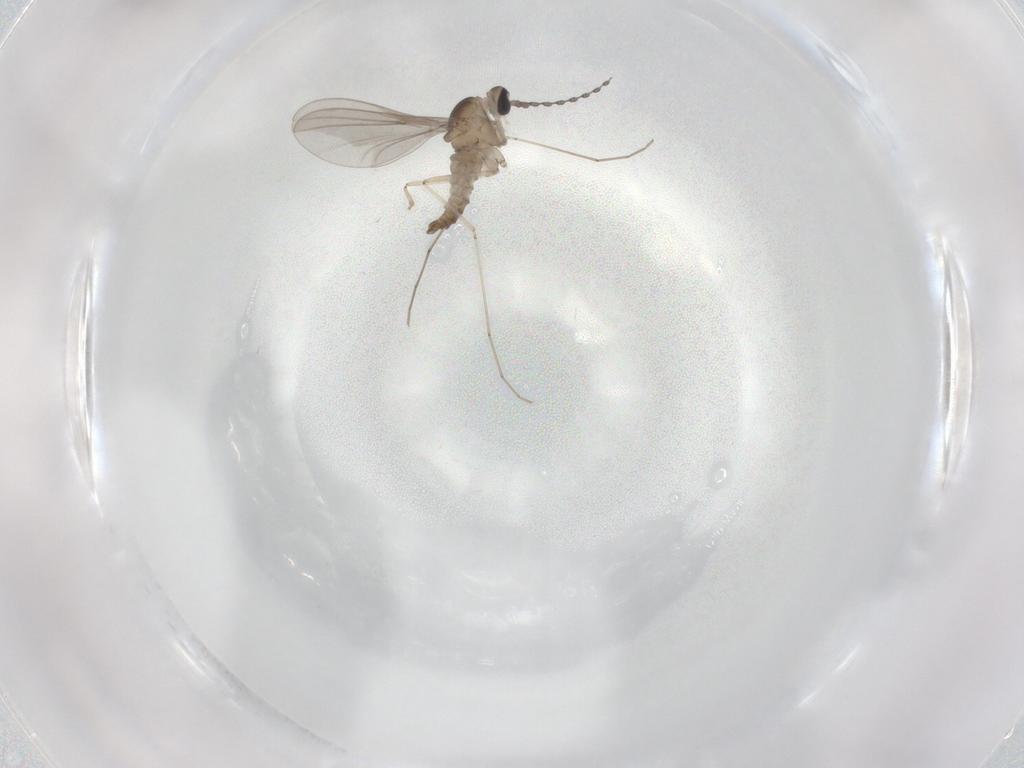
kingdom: Animalia
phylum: Arthropoda
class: Insecta
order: Diptera
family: Cecidomyiidae
